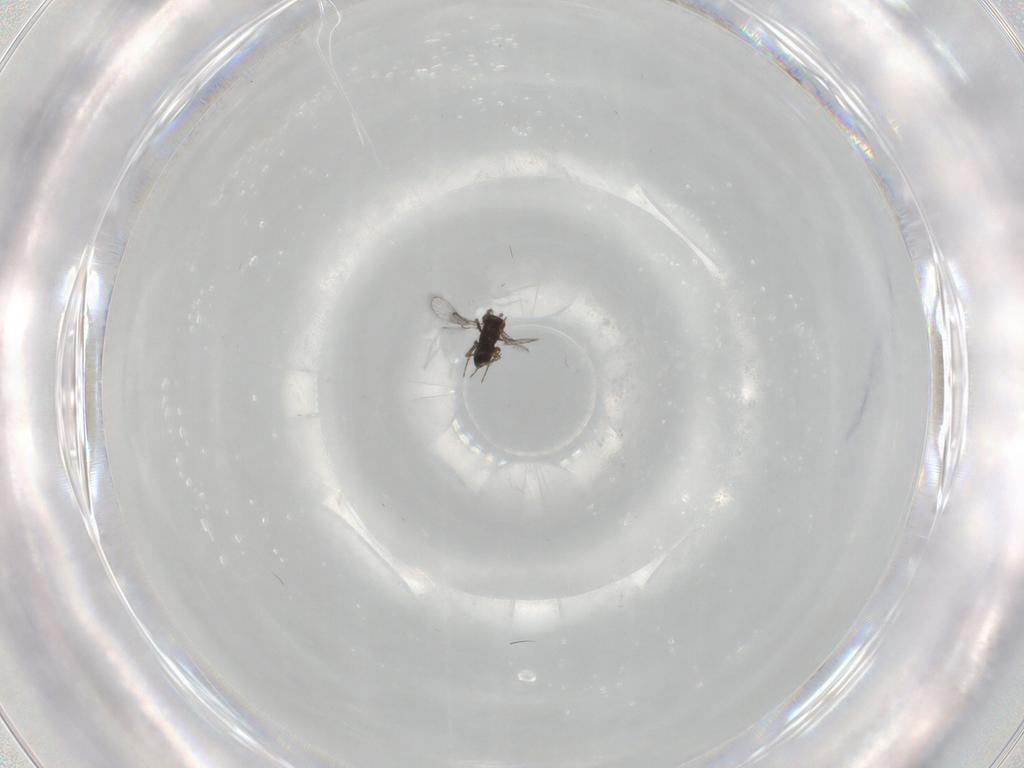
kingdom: Animalia
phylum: Arthropoda
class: Insecta
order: Hymenoptera
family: Trichogrammatidae
